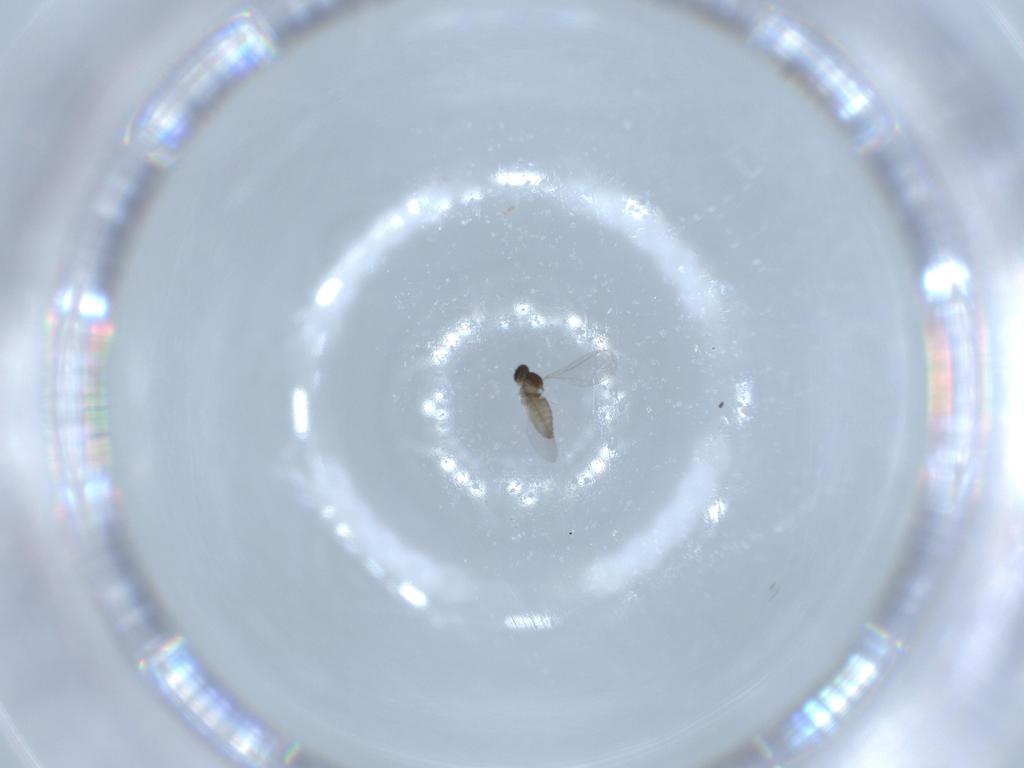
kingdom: Animalia
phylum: Arthropoda
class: Insecta
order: Diptera
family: Cecidomyiidae
